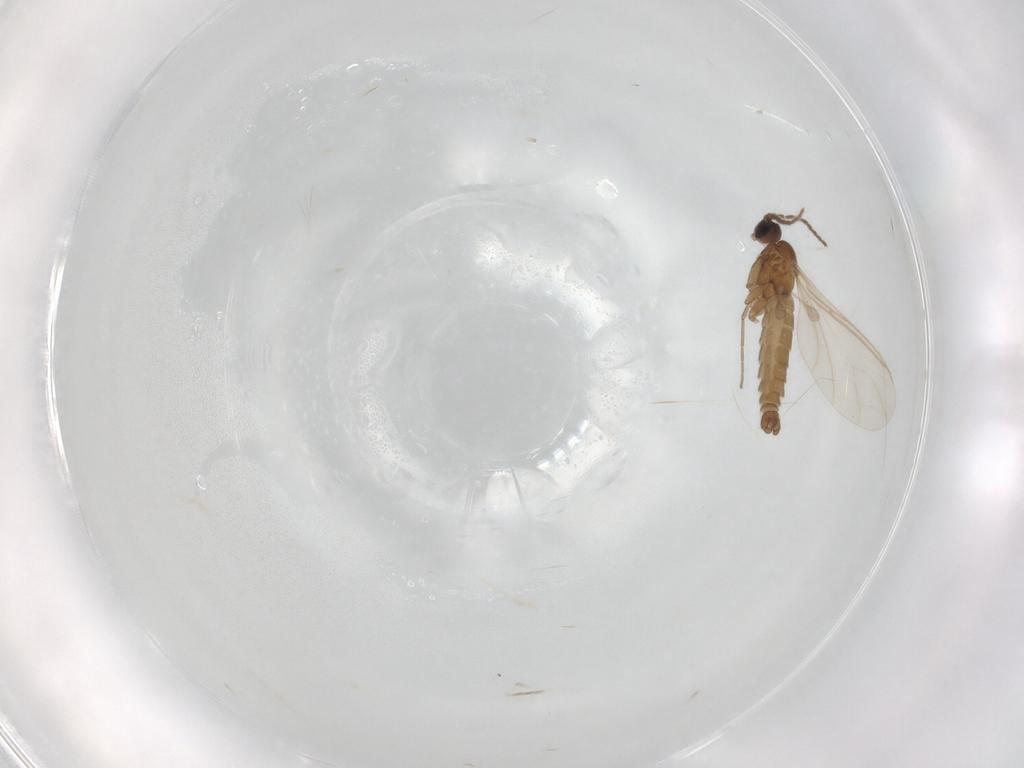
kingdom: Animalia
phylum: Arthropoda
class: Insecta
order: Diptera
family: Sciaridae
